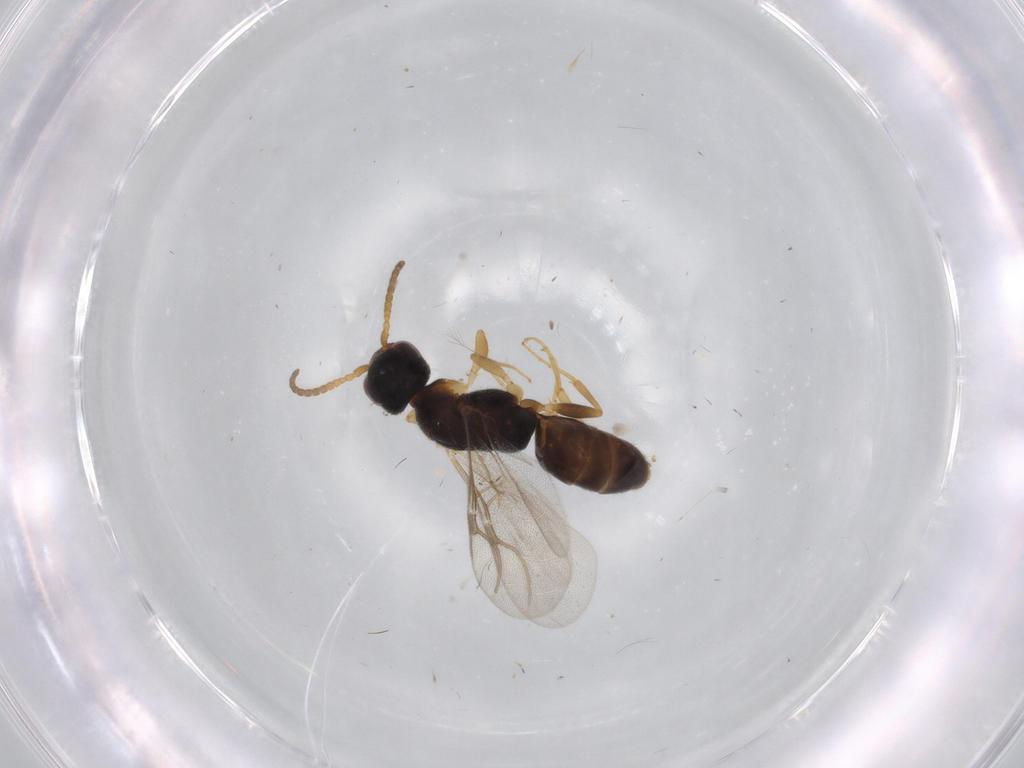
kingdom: Animalia
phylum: Arthropoda
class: Insecta
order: Hymenoptera
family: Bethylidae
